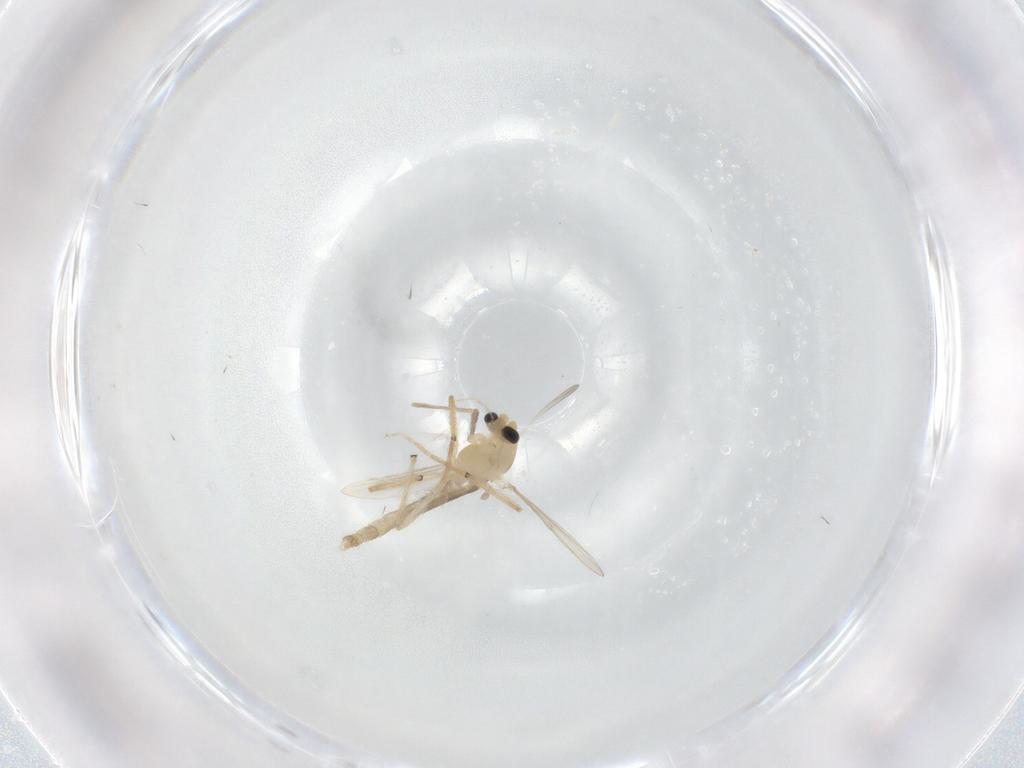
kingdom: Animalia
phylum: Arthropoda
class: Insecta
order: Diptera
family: Chironomidae
